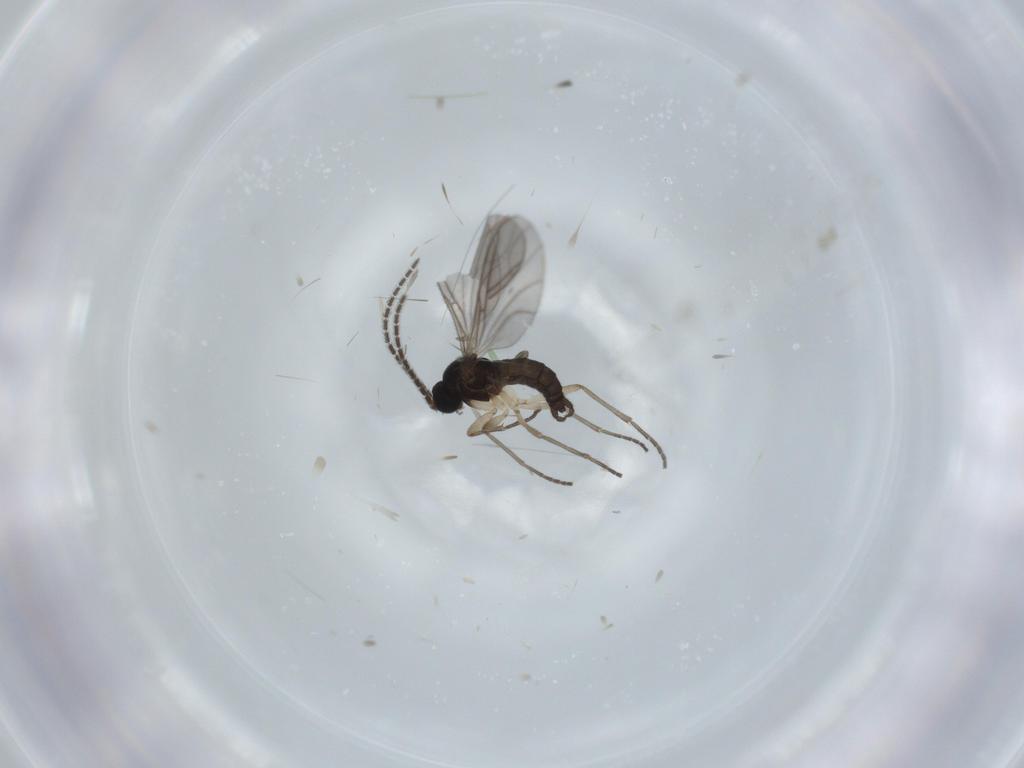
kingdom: Animalia
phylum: Arthropoda
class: Insecta
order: Diptera
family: Sciaridae
